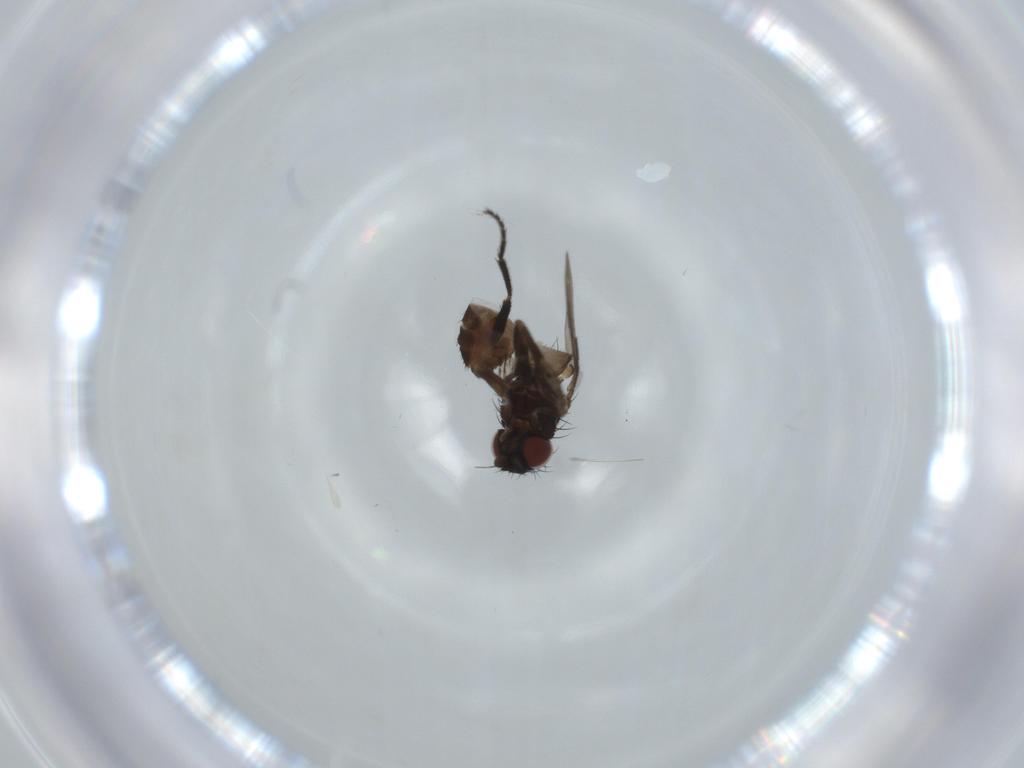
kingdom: Animalia
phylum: Arthropoda
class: Insecta
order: Diptera
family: Milichiidae
